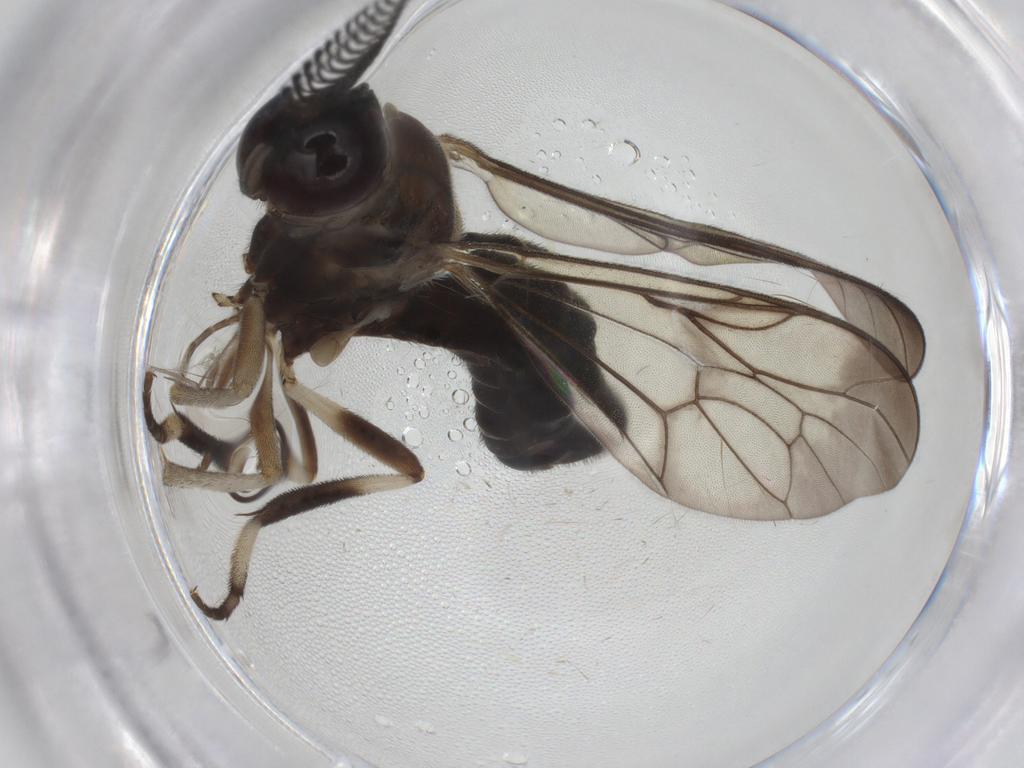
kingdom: Animalia
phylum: Arthropoda
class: Insecta
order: Diptera
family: Xylophagidae
